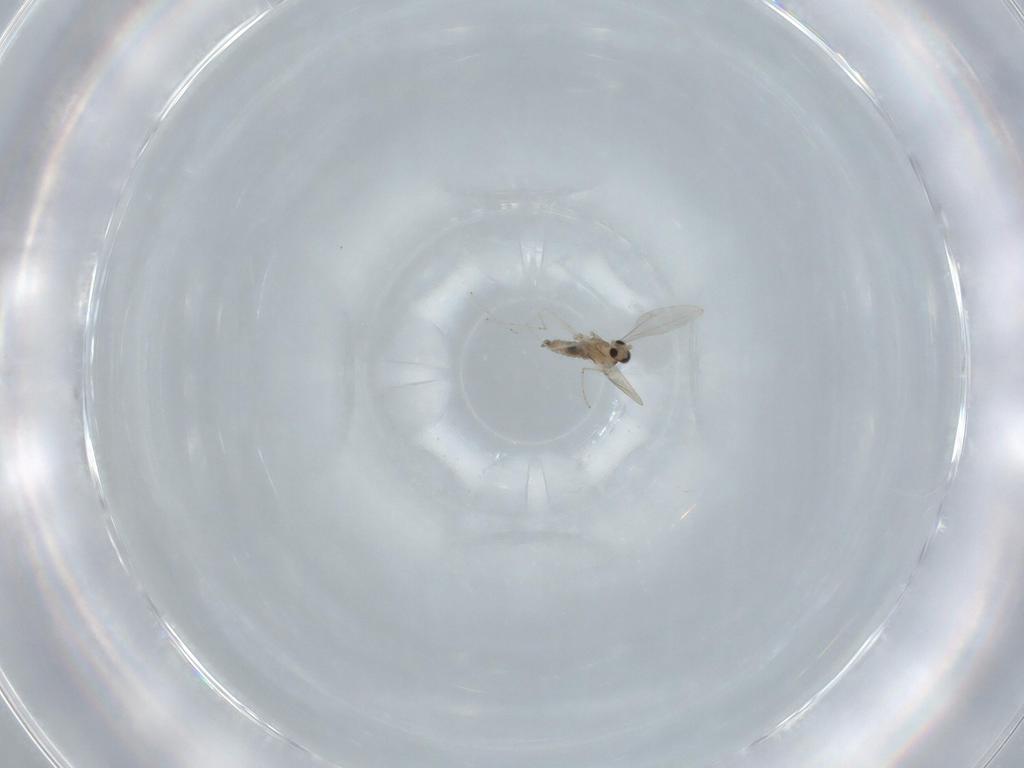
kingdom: Animalia
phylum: Arthropoda
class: Insecta
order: Diptera
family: Cecidomyiidae
